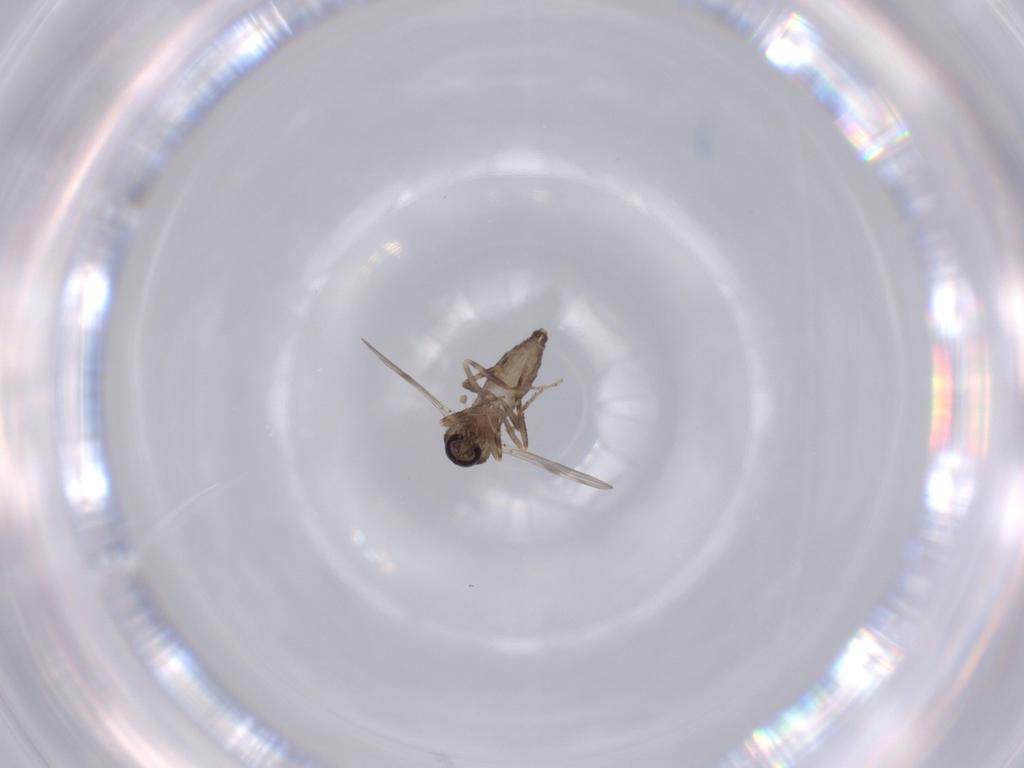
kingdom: Animalia
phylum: Arthropoda
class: Insecta
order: Diptera
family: Ceratopogonidae
